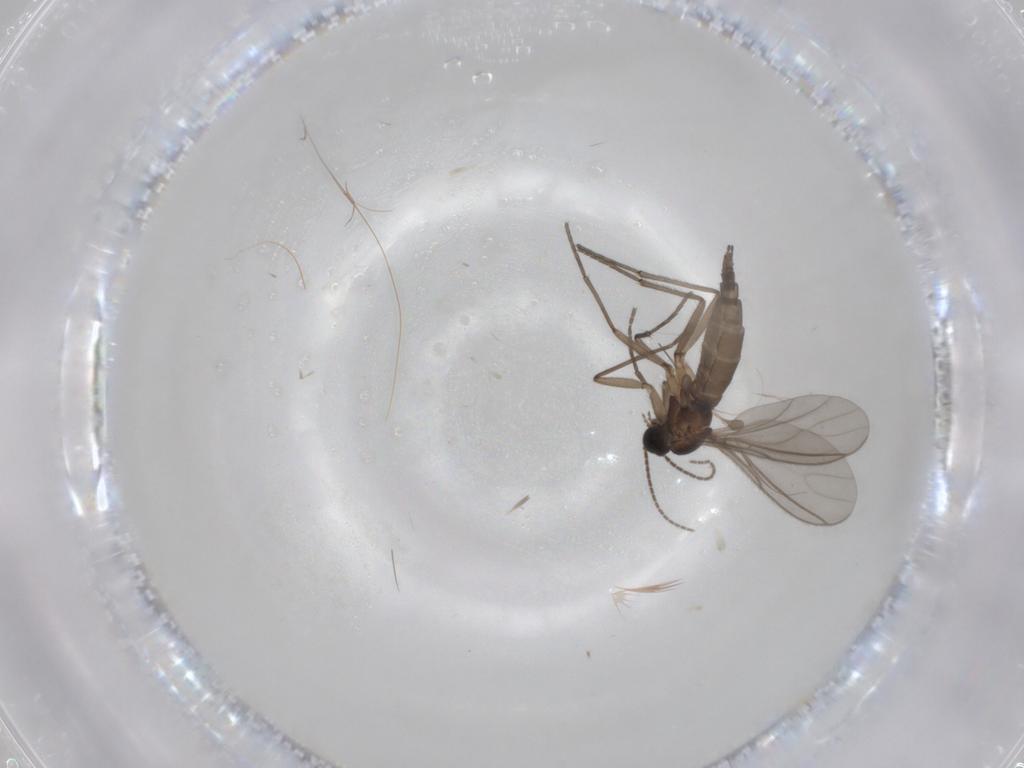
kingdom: Animalia
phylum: Arthropoda
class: Insecta
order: Diptera
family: Sciaridae
